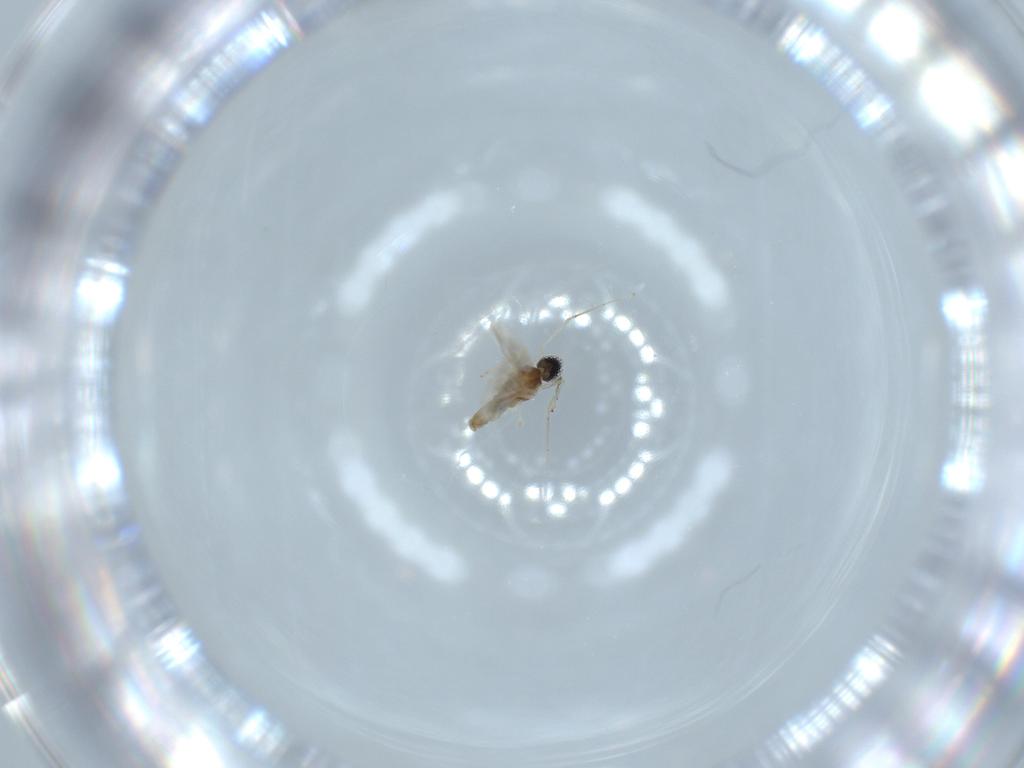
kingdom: Animalia
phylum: Arthropoda
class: Insecta
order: Diptera
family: Cecidomyiidae
